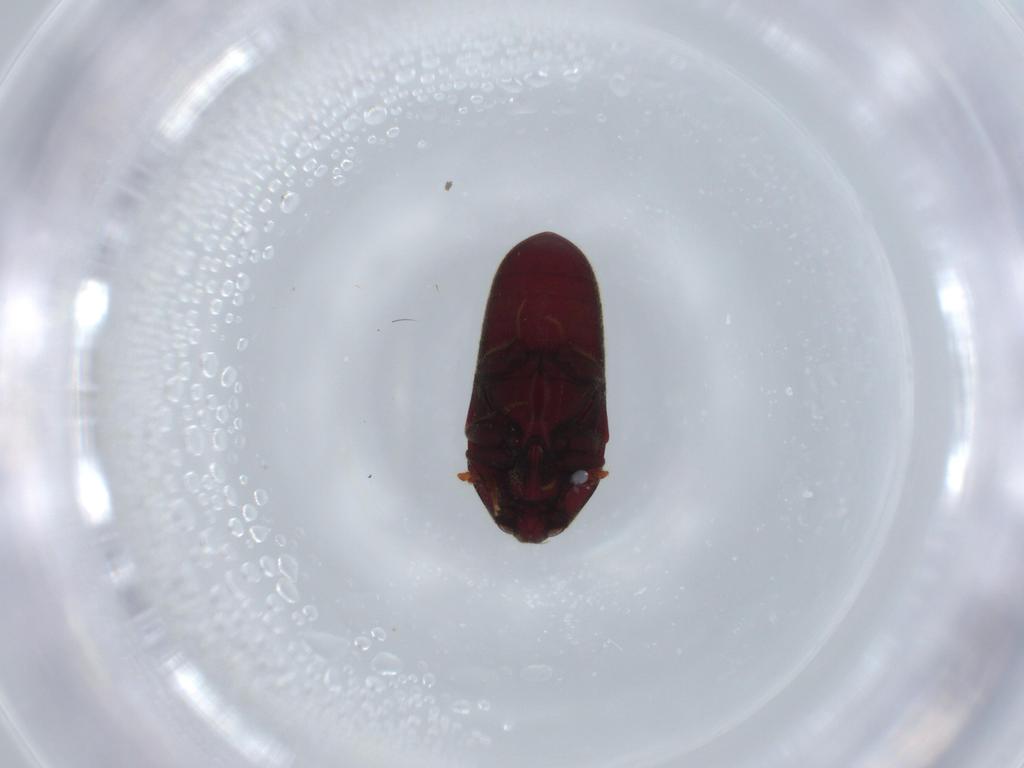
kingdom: Animalia
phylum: Arthropoda
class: Insecta
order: Coleoptera
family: Throscidae
